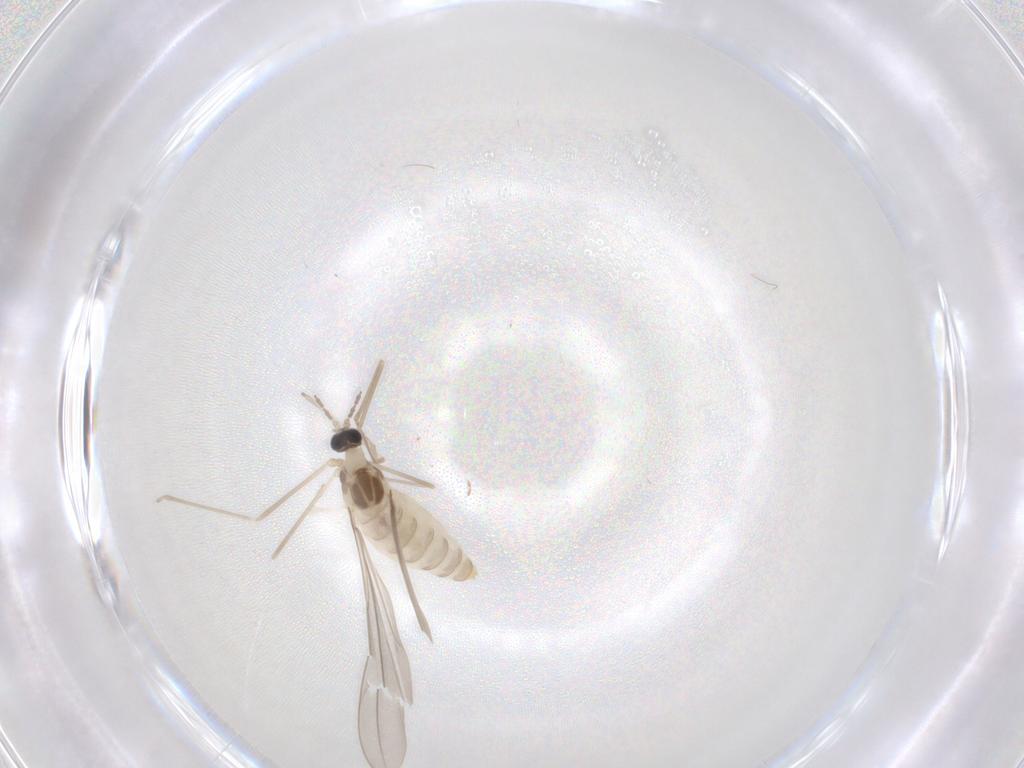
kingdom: Animalia
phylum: Arthropoda
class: Insecta
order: Diptera
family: Cecidomyiidae
